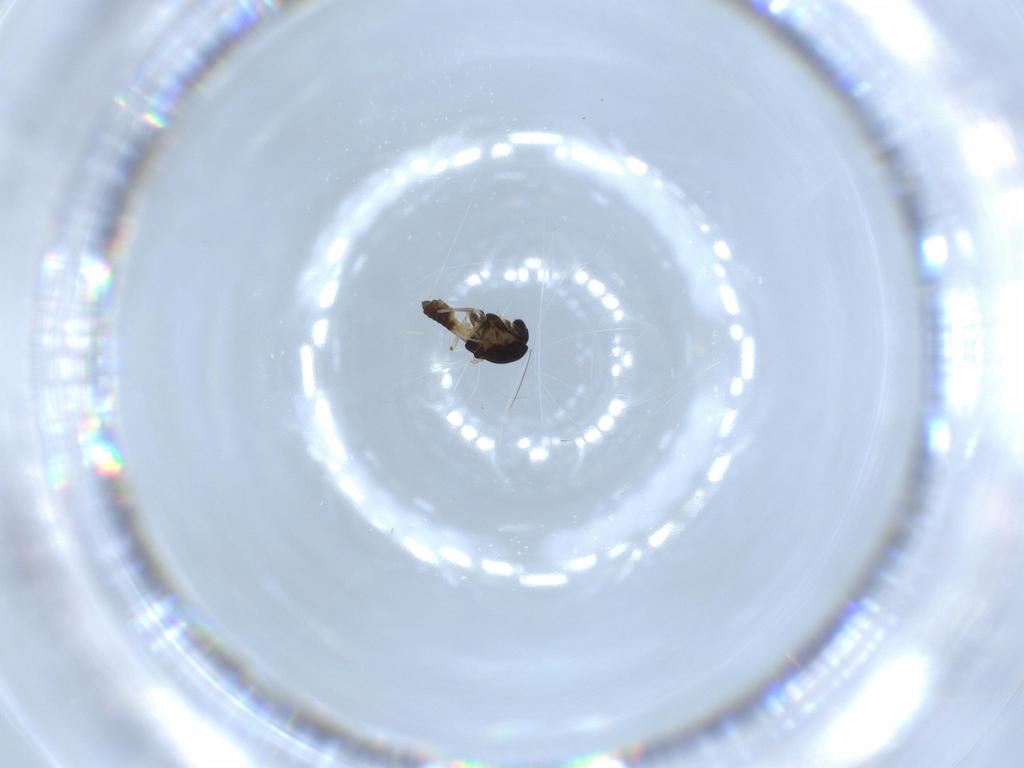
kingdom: Animalia
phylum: Arthropoda
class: Insecta
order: Diptera
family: Chironomidae
